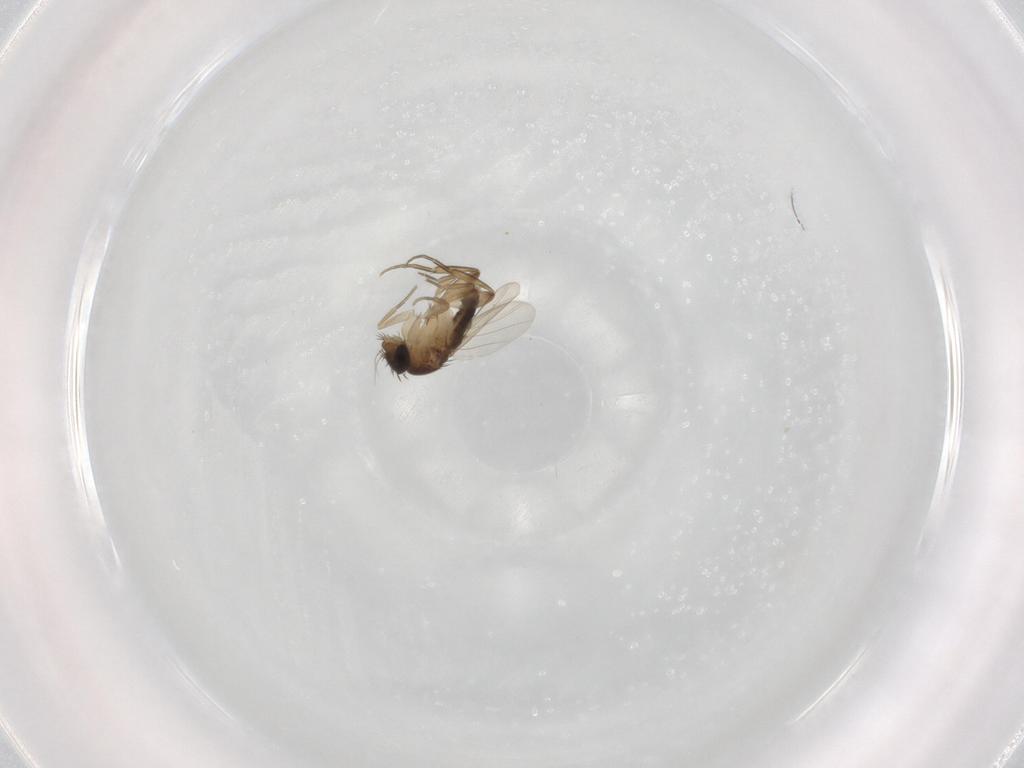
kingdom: Animalia
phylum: Arthropoda
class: Insecta
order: Diptera
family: Phoridae
